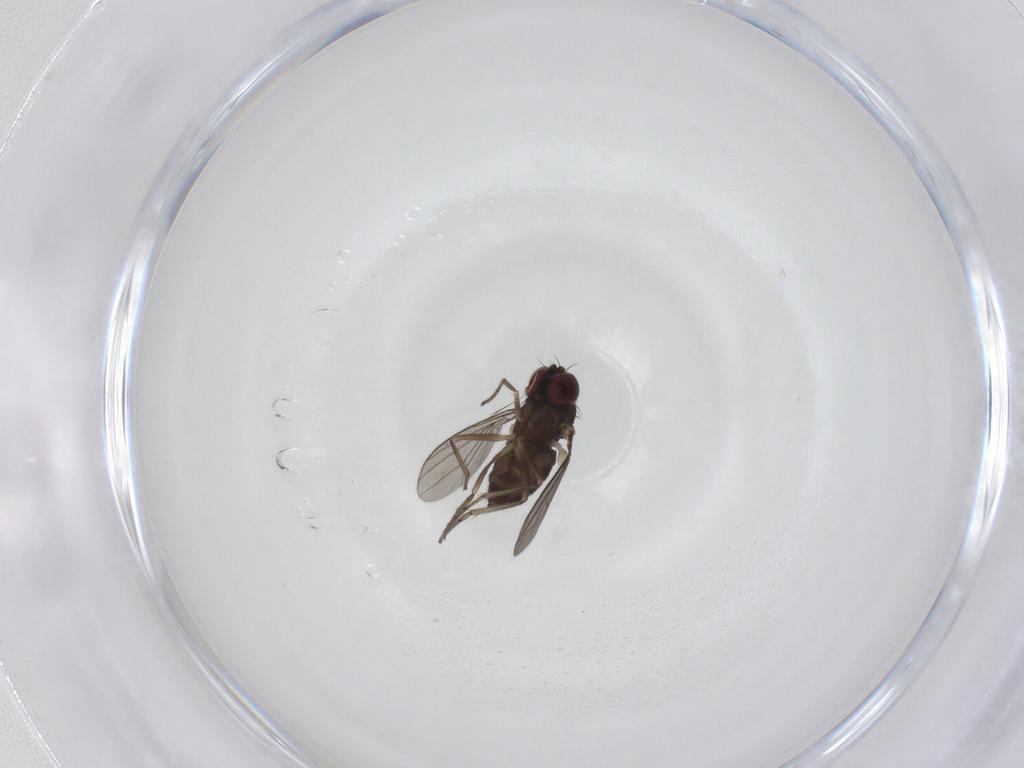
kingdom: Animalia
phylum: Arthropoda
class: Insecta
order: Diptera
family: Dolichopodidae
